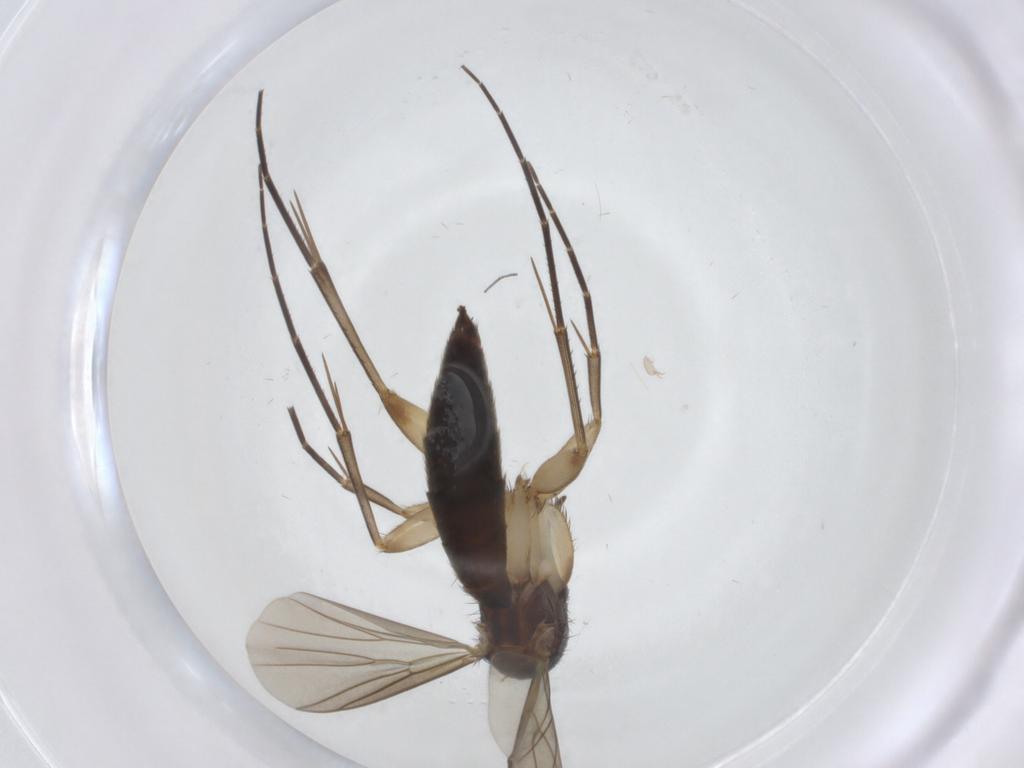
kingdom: Animalia
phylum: Arthropoda
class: Insecta
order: Diptera
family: Mycetophilidae
